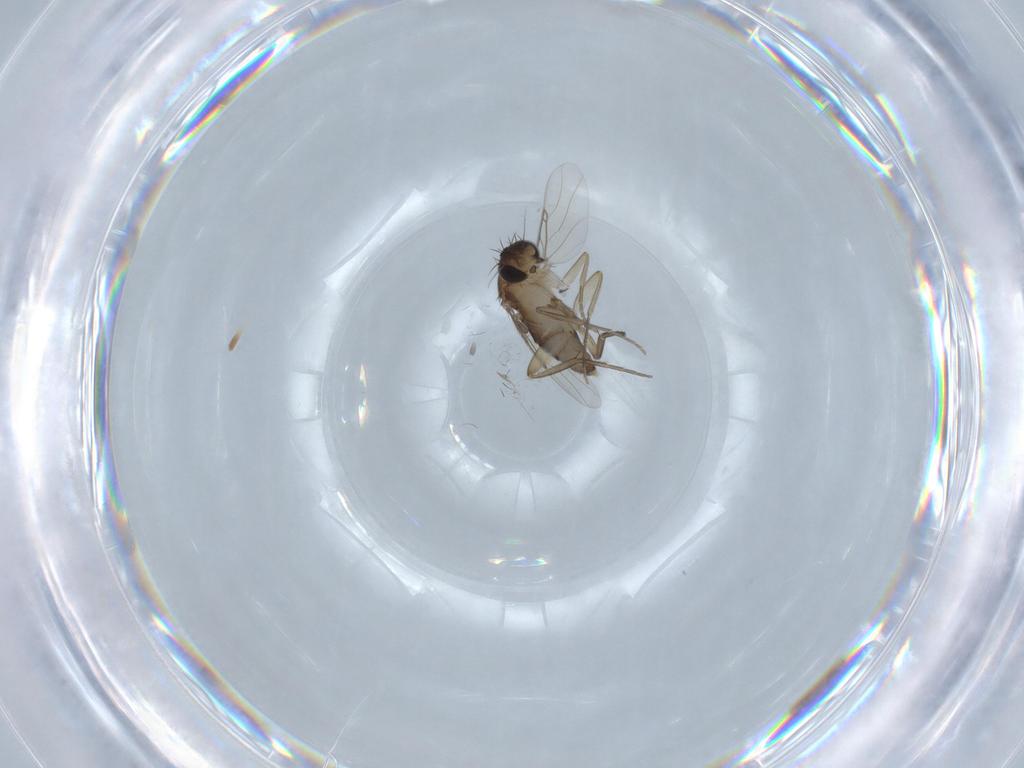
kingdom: Animalia
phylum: Arthropoda
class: Insecta
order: Diptera
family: Phoridae
